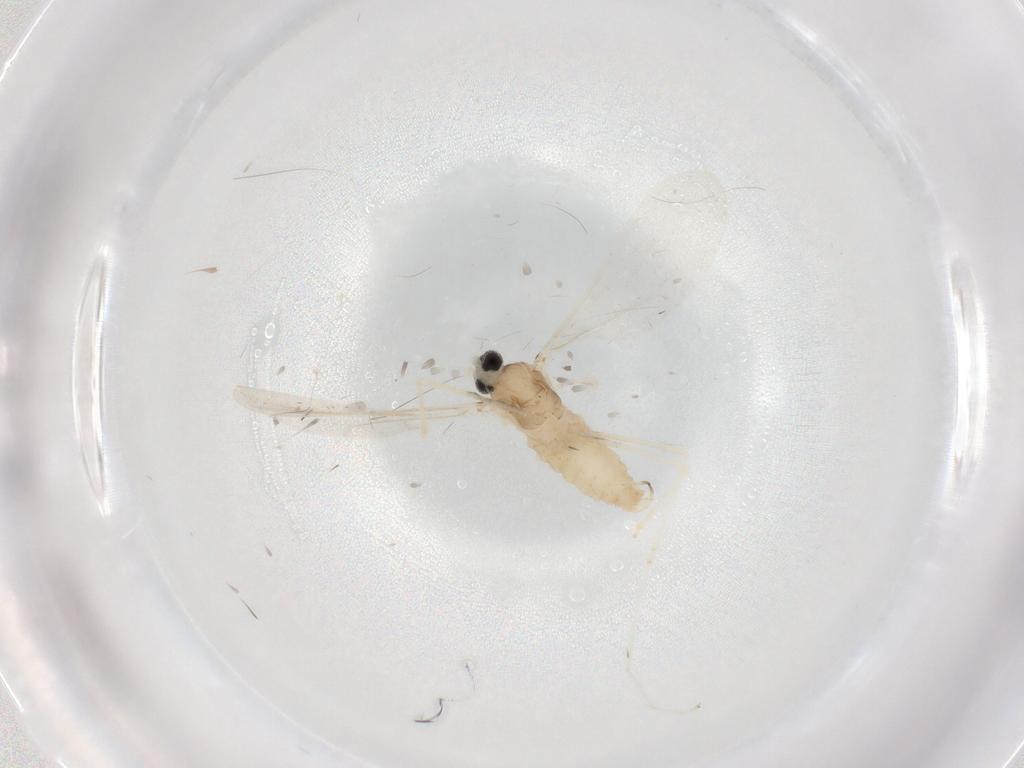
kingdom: Animalia
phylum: Arthropoda
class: Insecta
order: Diptera
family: Cecidomyiidae
